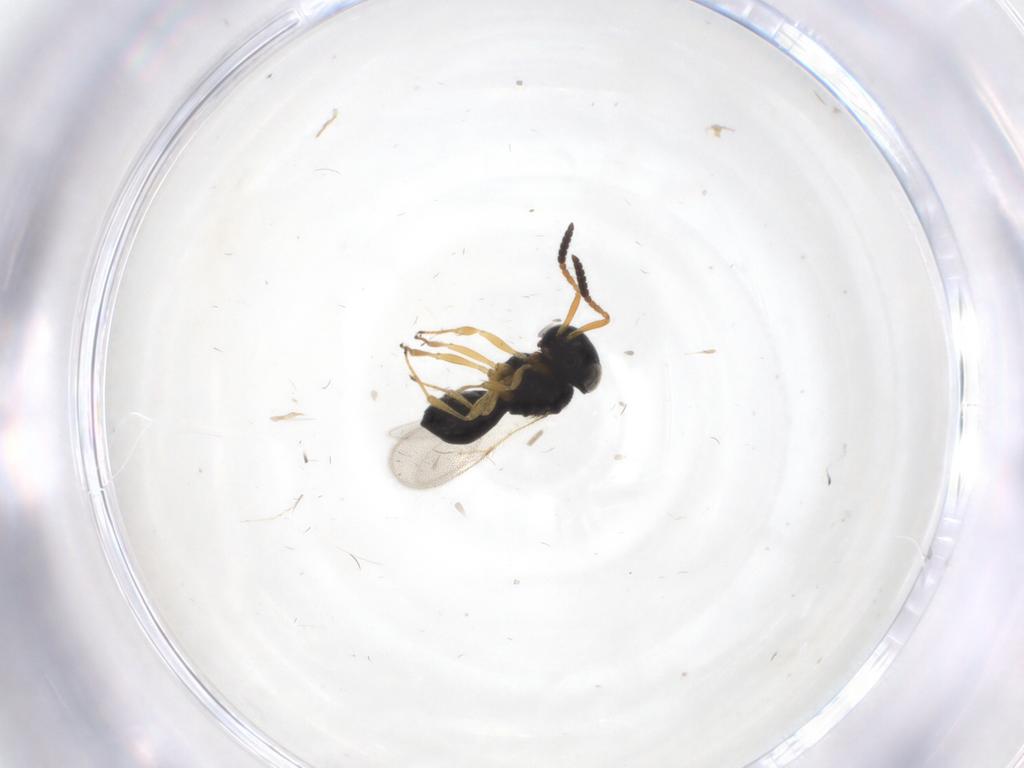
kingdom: Animalia
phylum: Arthropoda
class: Insecta
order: Hymenoptera
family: Scelionidae
